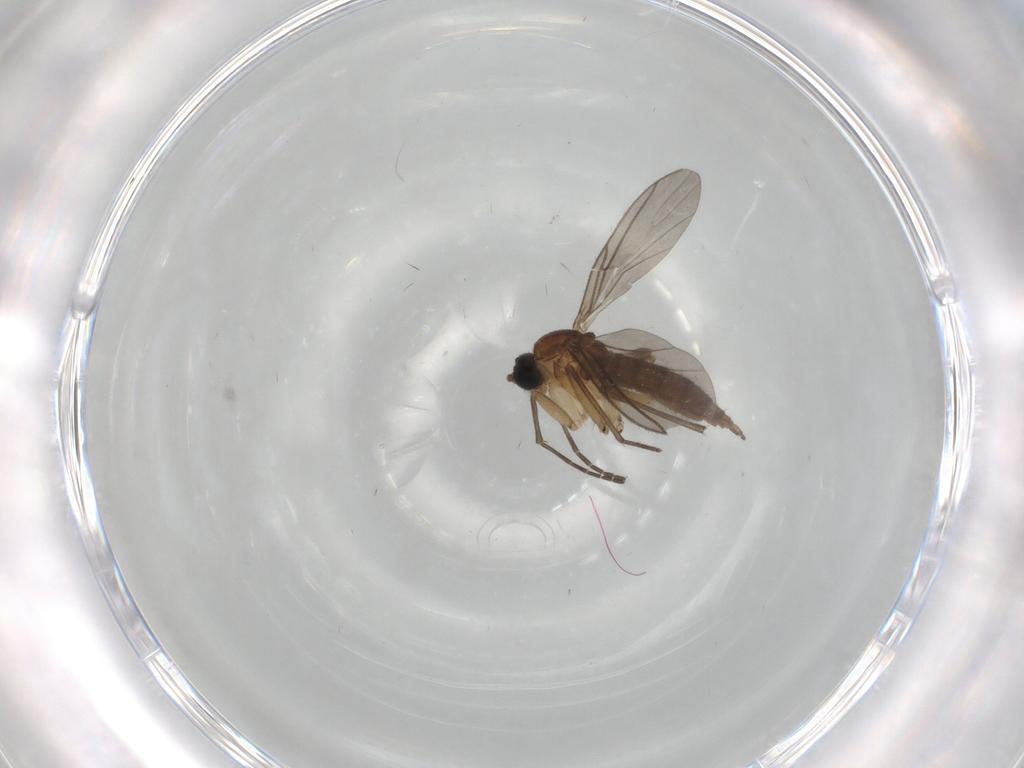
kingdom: Animalia
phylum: Arthropoda
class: Insecta
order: Diptera
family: Sciaridae
